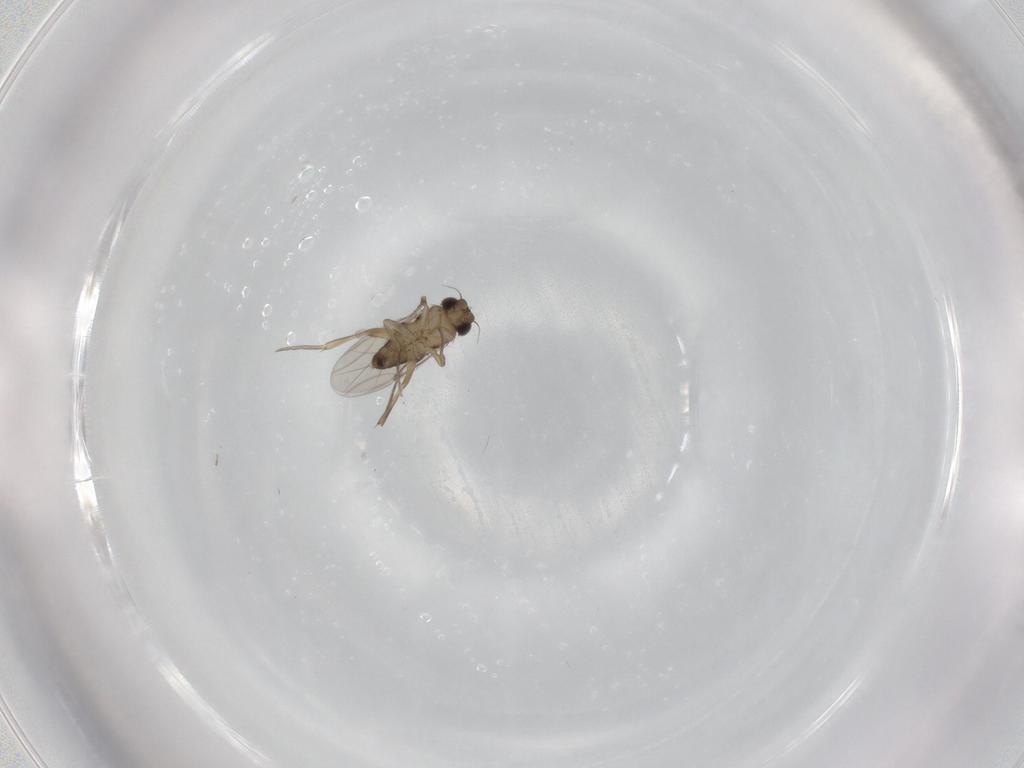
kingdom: Animalia
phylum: Arthropoda
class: Insecta
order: Diptera
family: Phoridae
